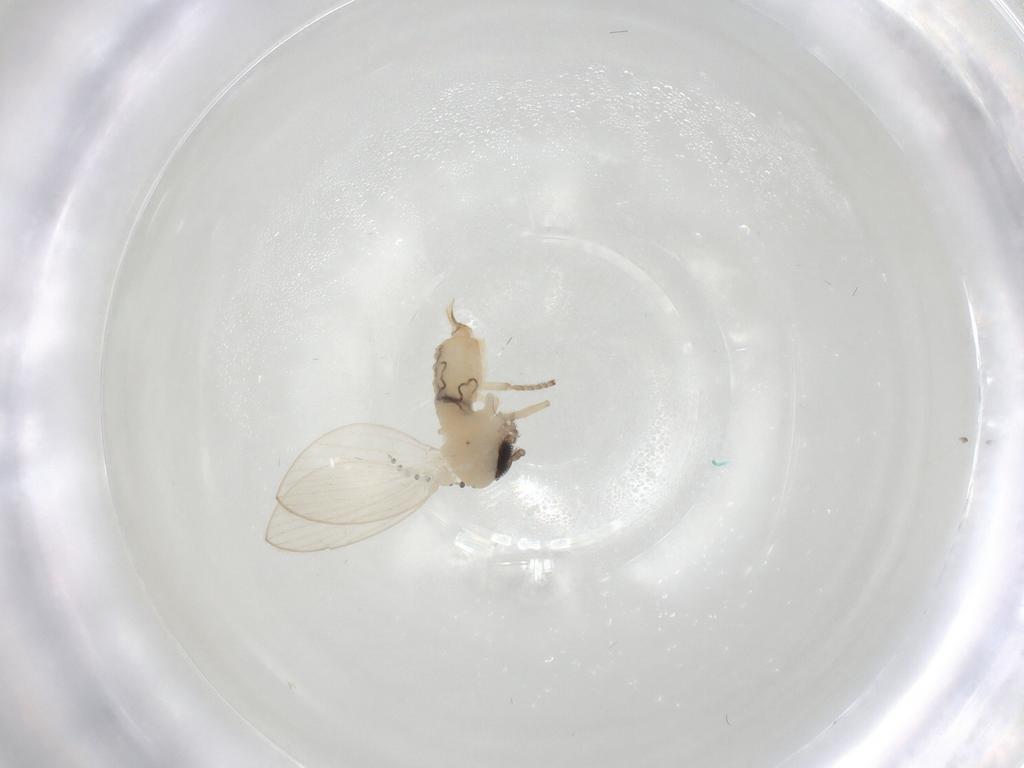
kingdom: Animalia
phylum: Arthropoda
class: Insecta
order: Diptera
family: Psychodidae
